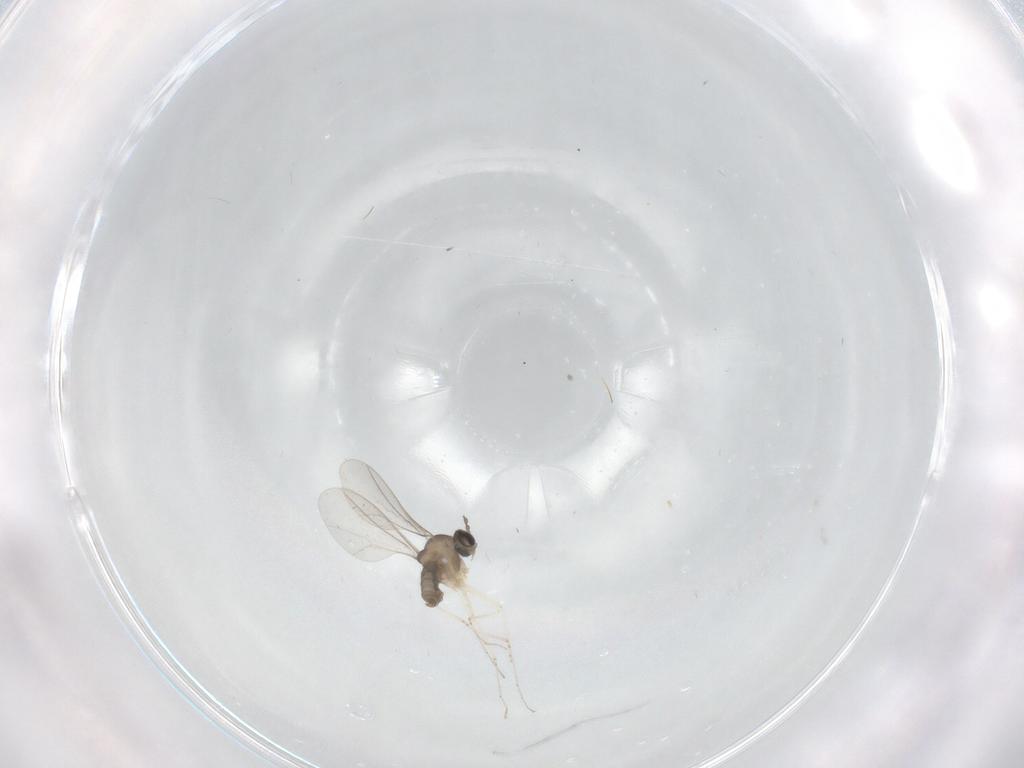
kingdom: Animalia
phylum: Arthropoda
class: Insecta
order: Diptera
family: Cecidomyiidae
